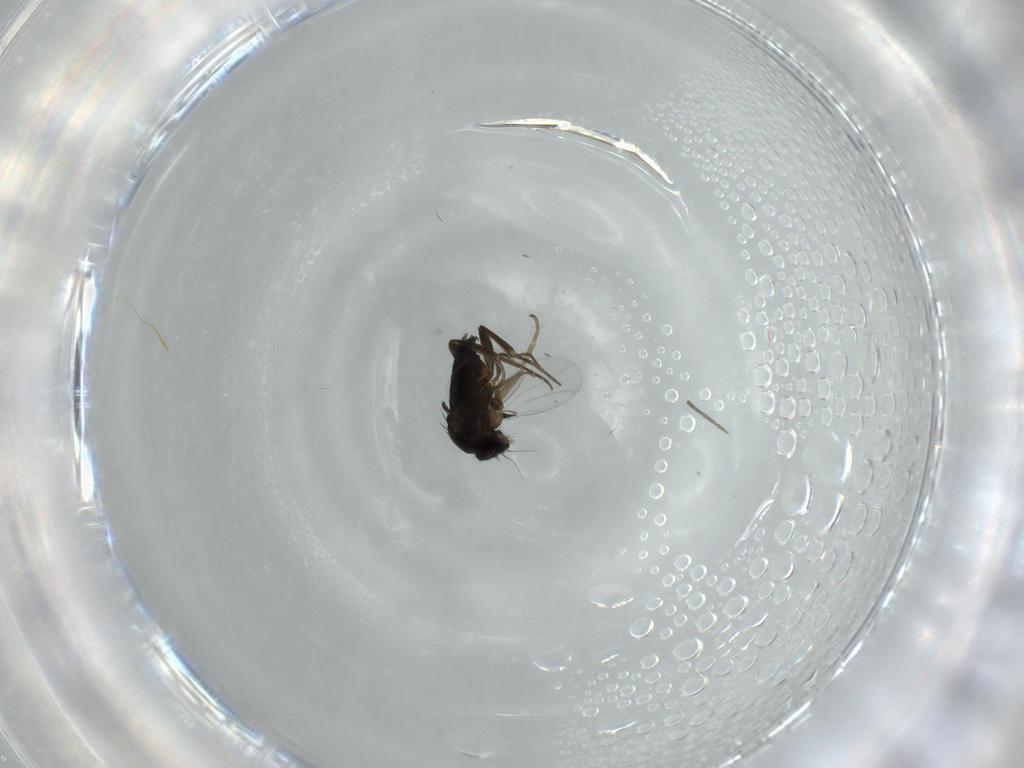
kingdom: Animalia
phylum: Arthropoda
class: Insecta
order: Diptera
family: Phoridae
